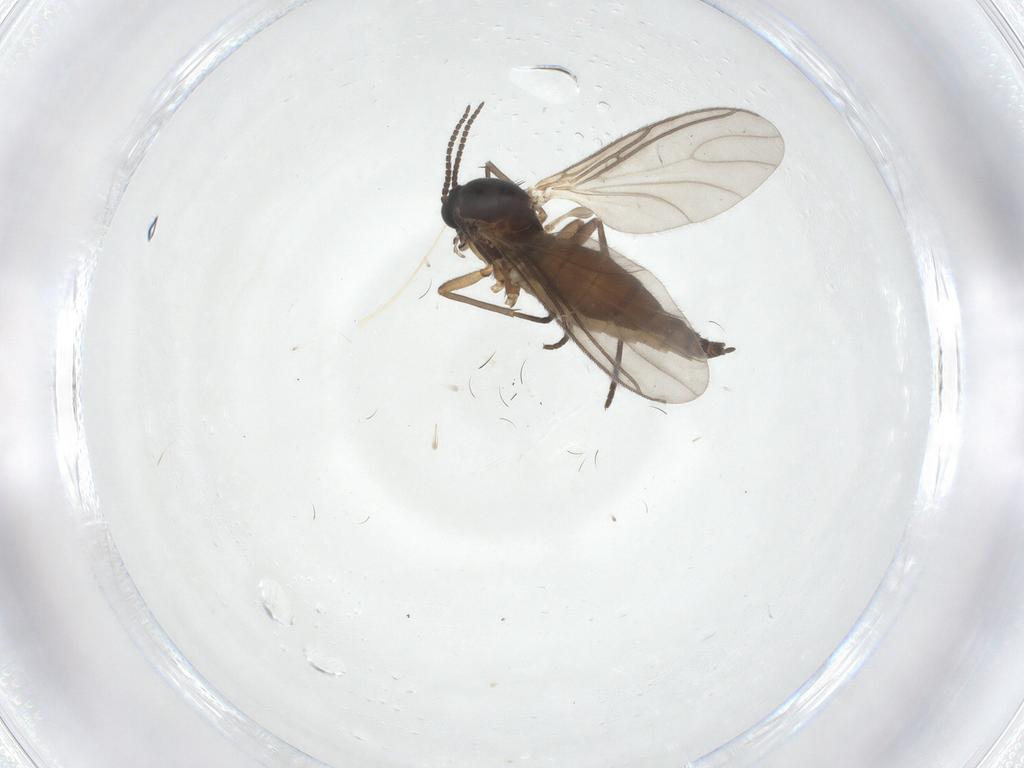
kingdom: Animalia
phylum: Arthropoda
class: Insecta
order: Diptera
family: Sciaridae
